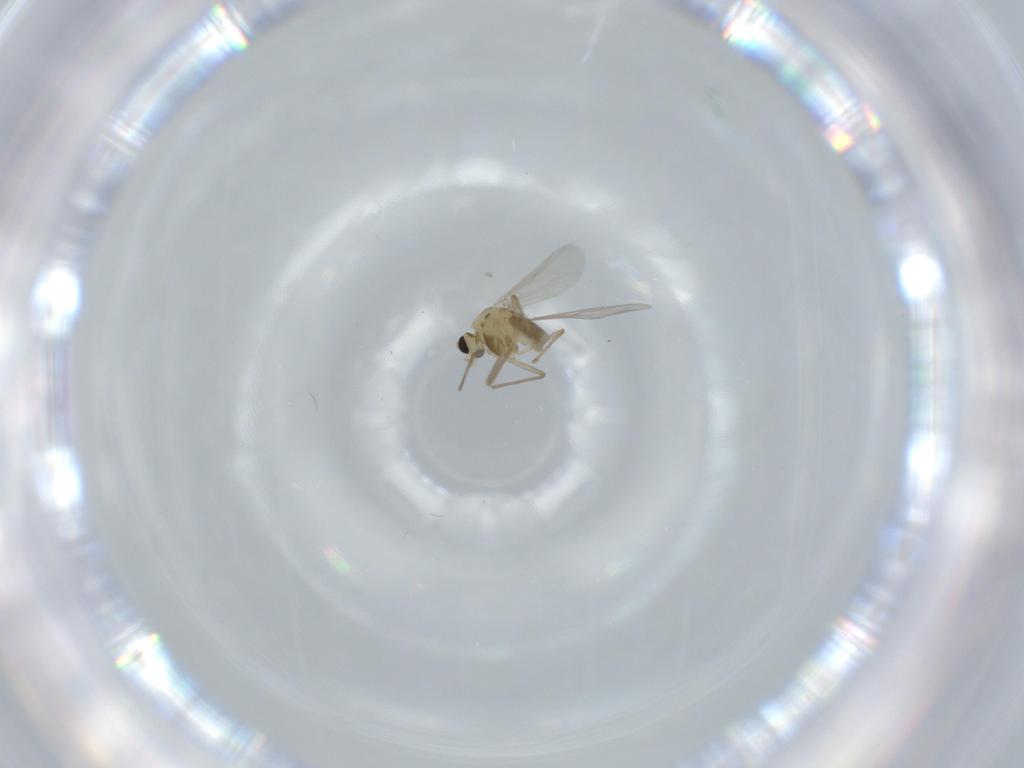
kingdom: Animalia
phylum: Arthropoda
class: Insecta
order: Diptera
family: Chironomidae
